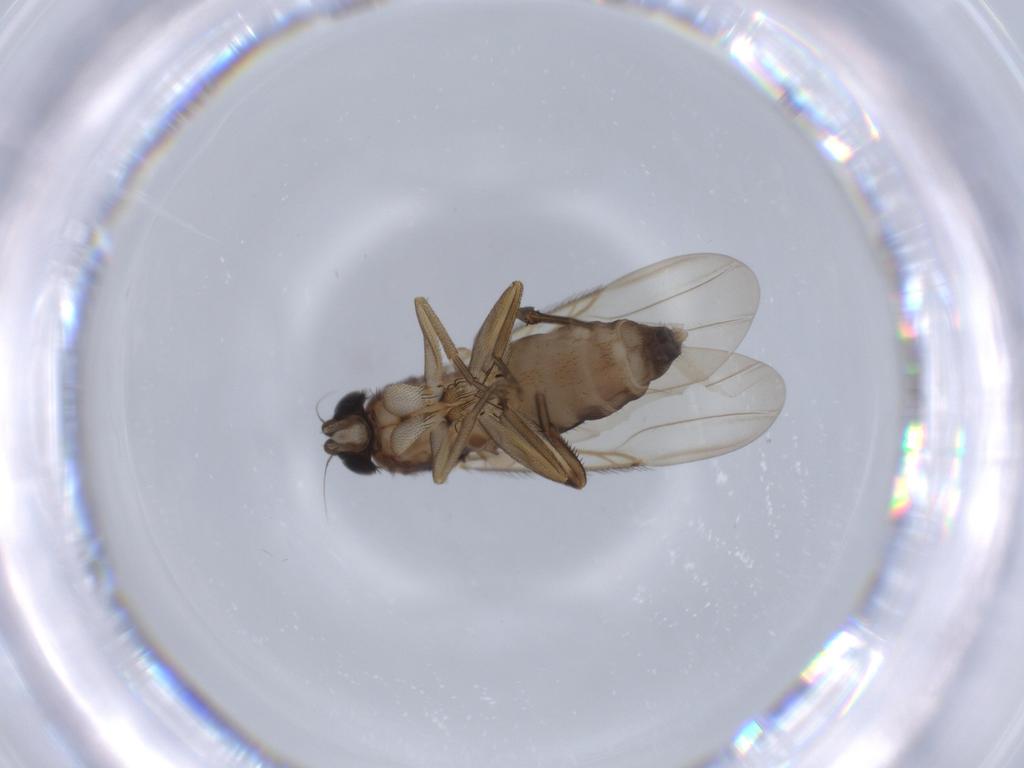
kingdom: Animalia
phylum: Arthropoda
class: Insecta
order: Diptera
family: Phoridae
